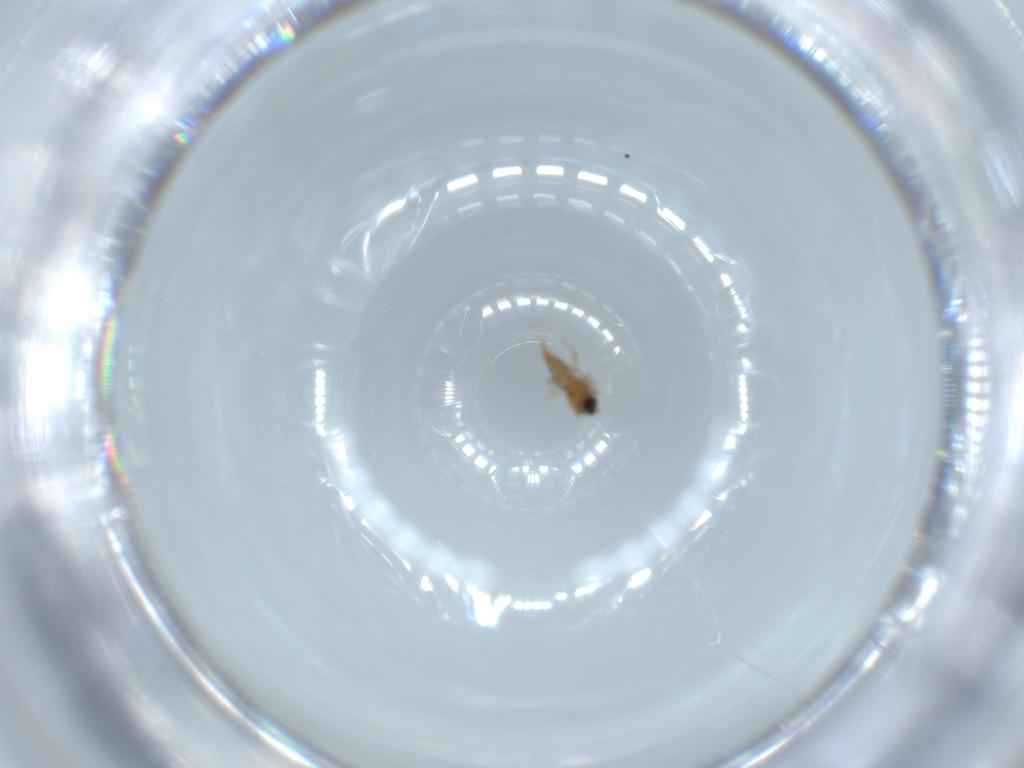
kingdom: Animalia
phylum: Arthropoda
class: Insecta
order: Diptera
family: Cecidomyiidae
